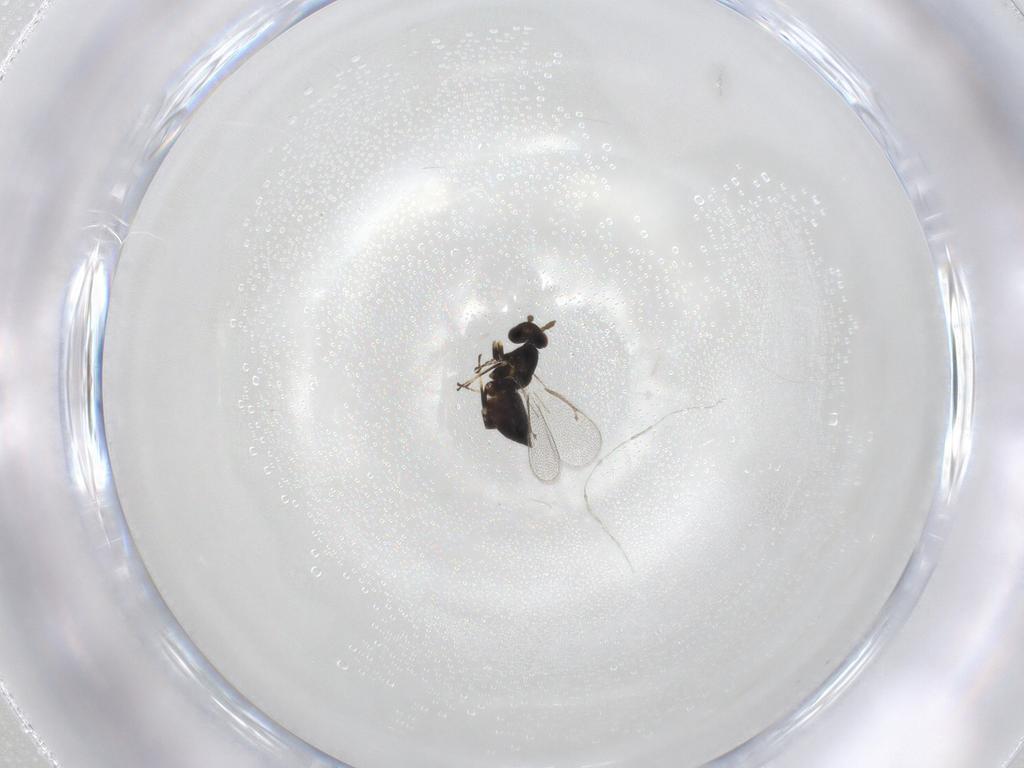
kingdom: Animalia
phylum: Arthropoda
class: Insecta
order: Hymenoptera
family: Eulophidae
